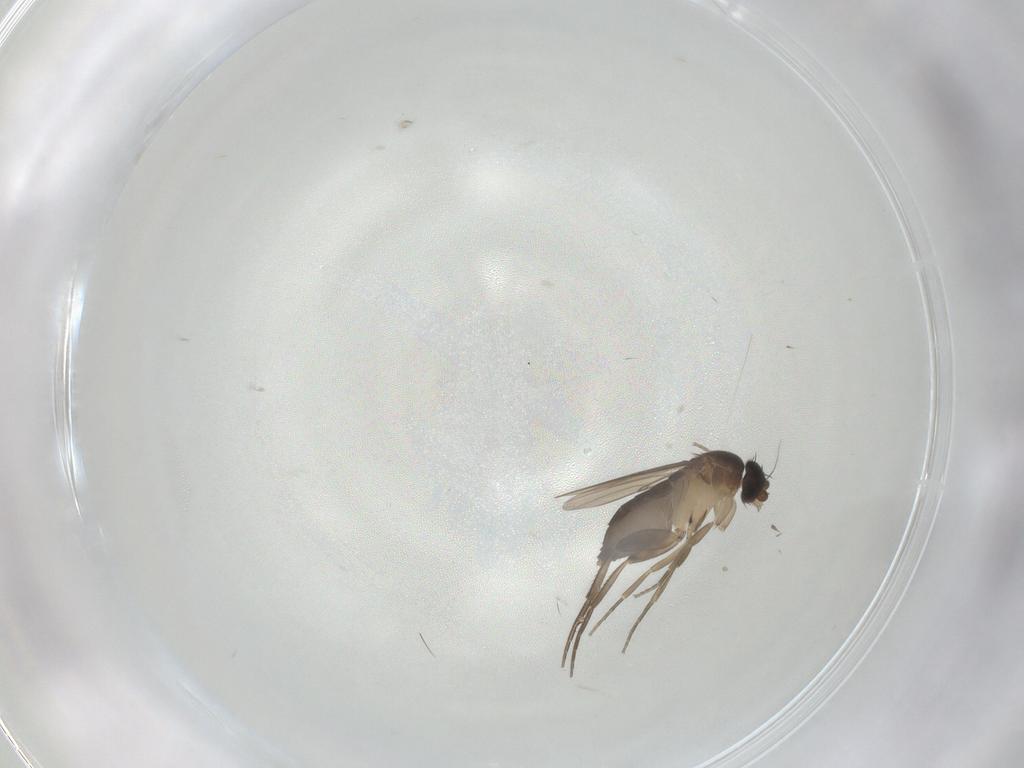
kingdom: Animalia
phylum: Arthropoda
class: Insecta
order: Diptera
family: Phoridae
